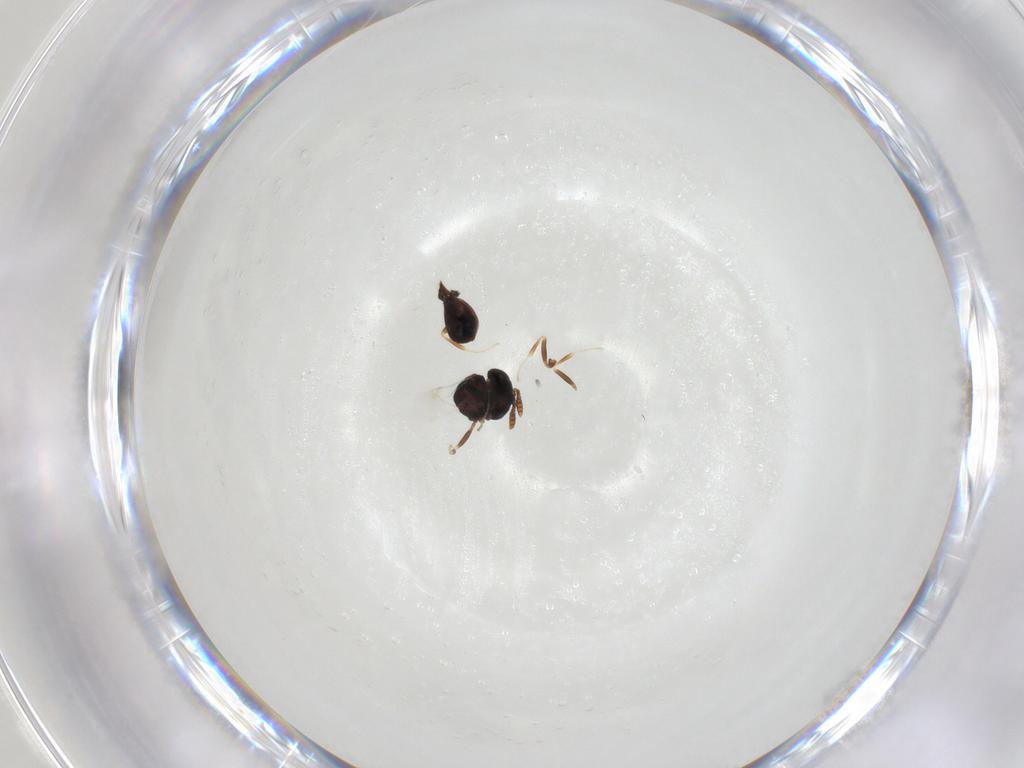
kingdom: Animalia
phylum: Arthropoda
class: Insecta
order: Hymenoptera
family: Scelionidae
